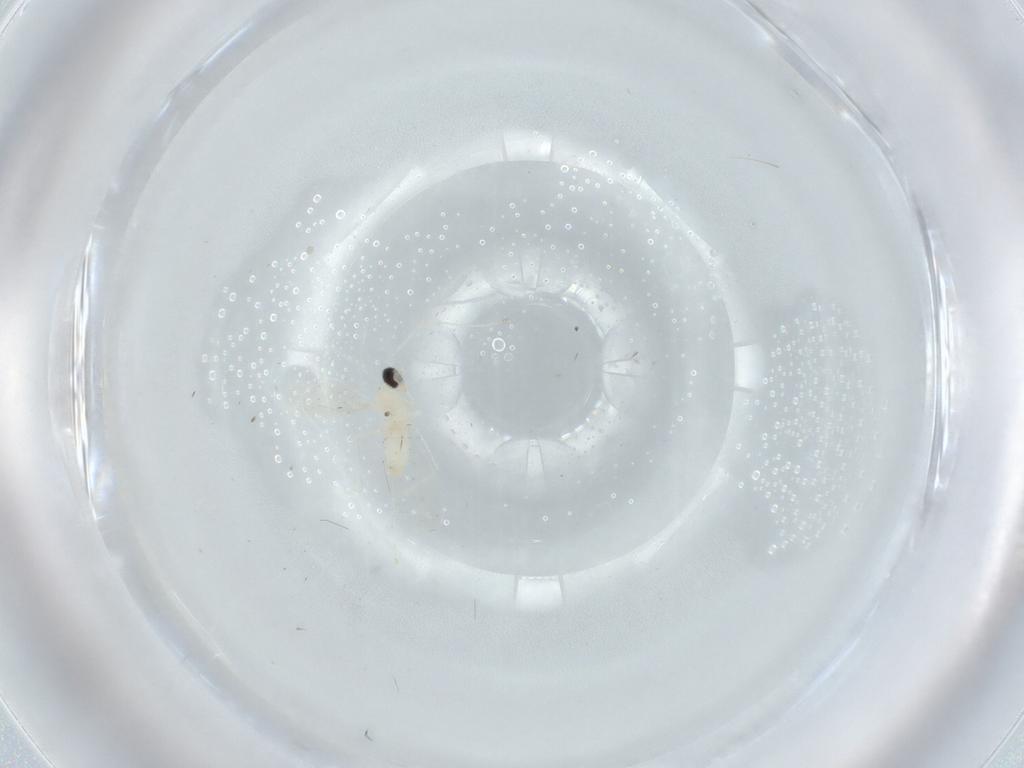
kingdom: Animalia
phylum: Arthropoda
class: Insecta
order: Diptera
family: Cecidomyiidae
